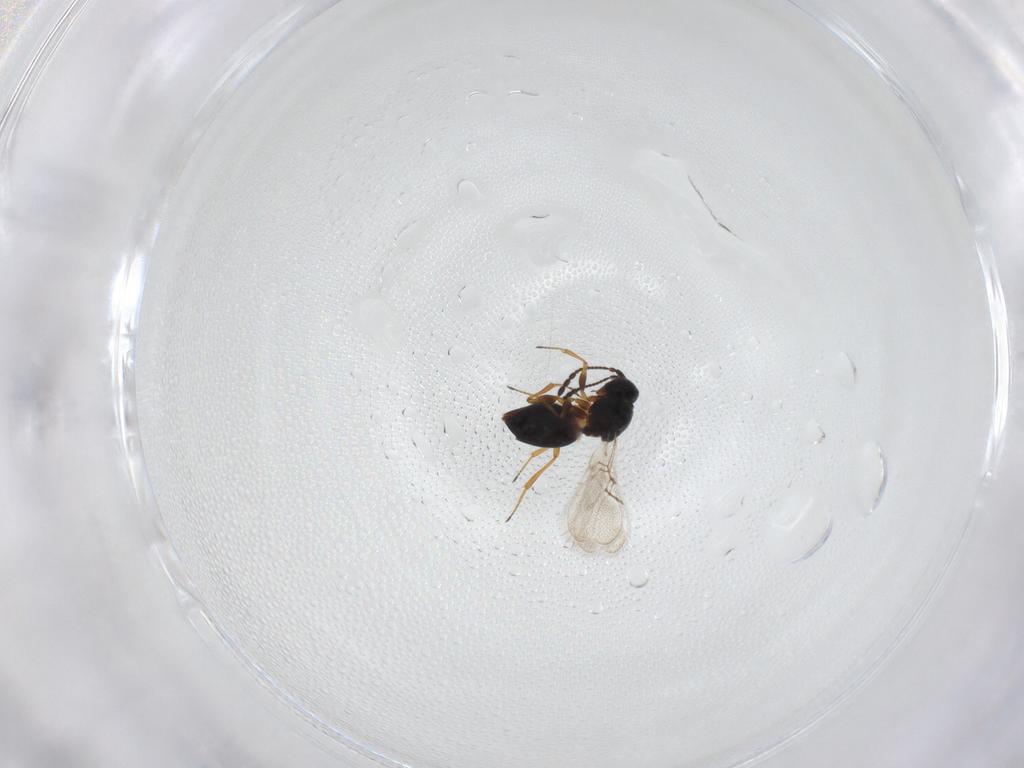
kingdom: Animalia
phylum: Arthropoda
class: Insecta
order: Hymenoptera
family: Figitidae
